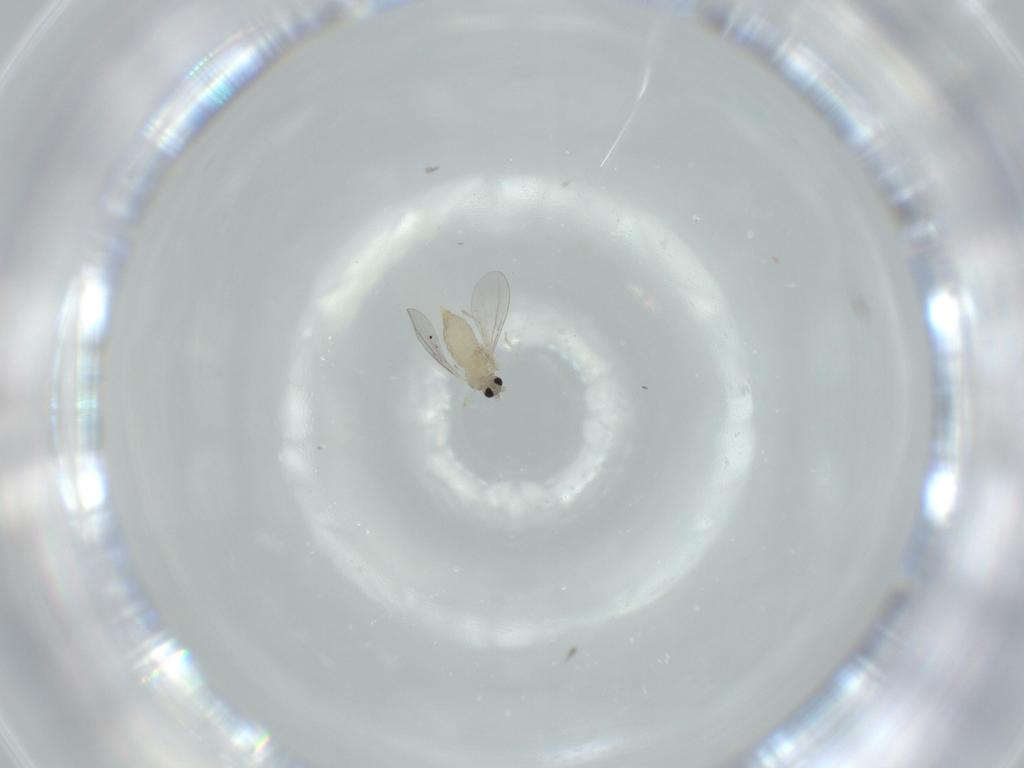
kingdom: Animalia
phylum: Arthropoda
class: Insecta
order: Diptera
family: Cecidomyiidae
